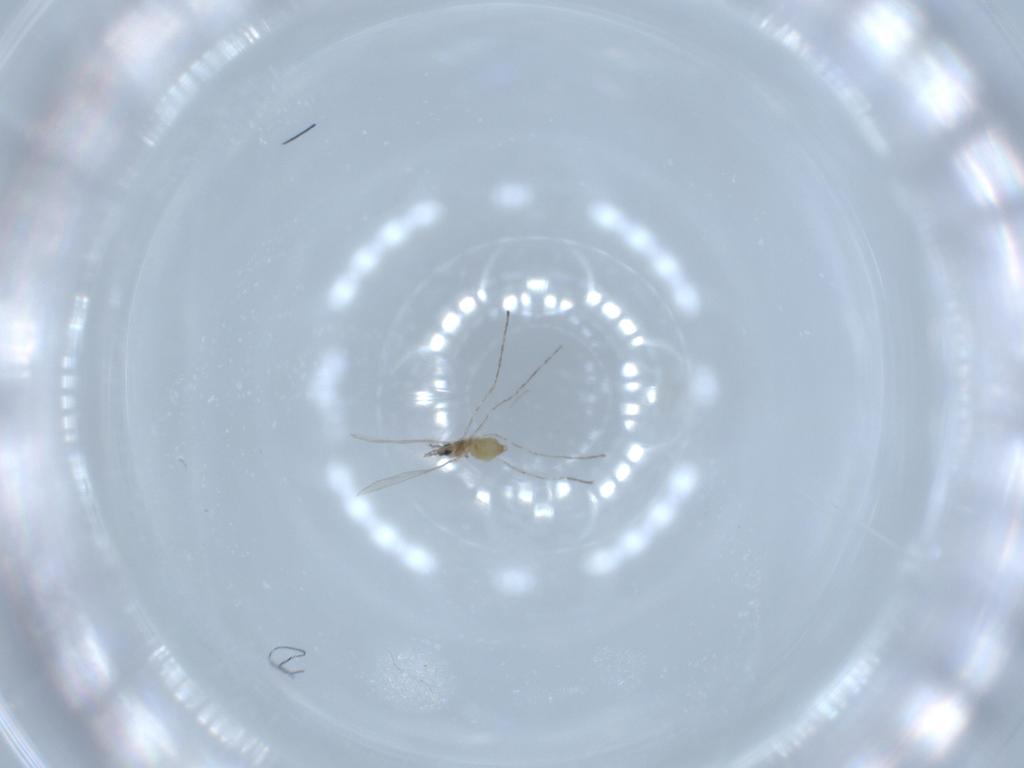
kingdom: Animalia
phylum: Arthropoda
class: Insecta
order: Diptera
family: Cecidomyiidae
